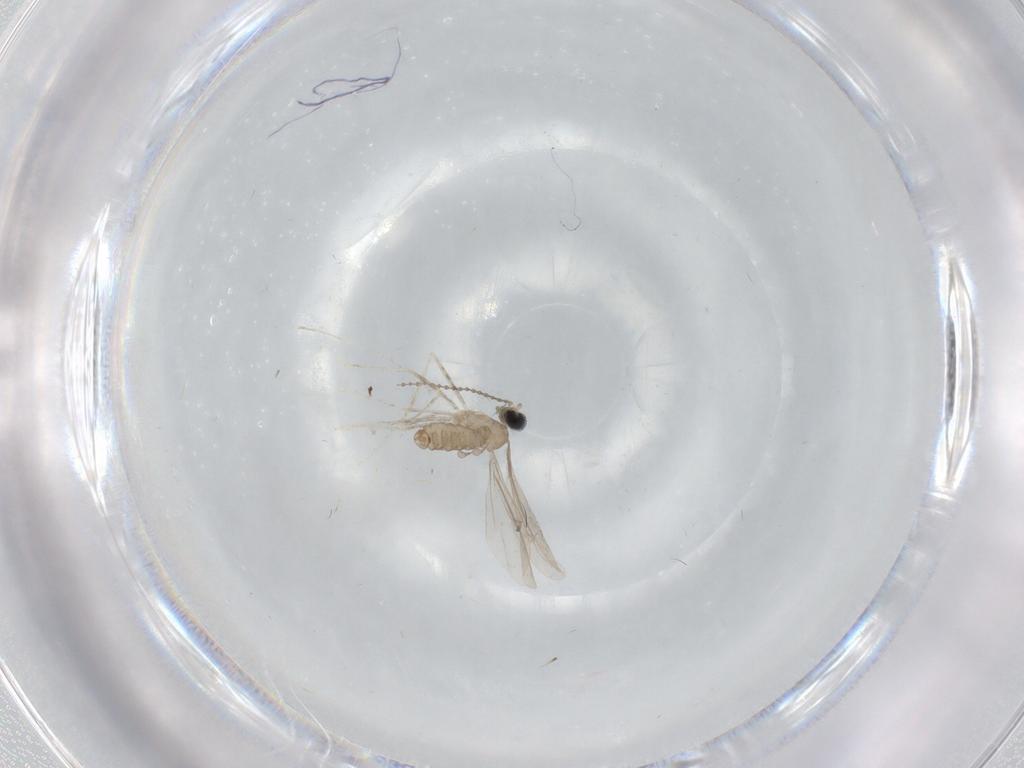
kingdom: Animalia
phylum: Arthropoda
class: Insecta
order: Diptera
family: Cecidomyiidae
